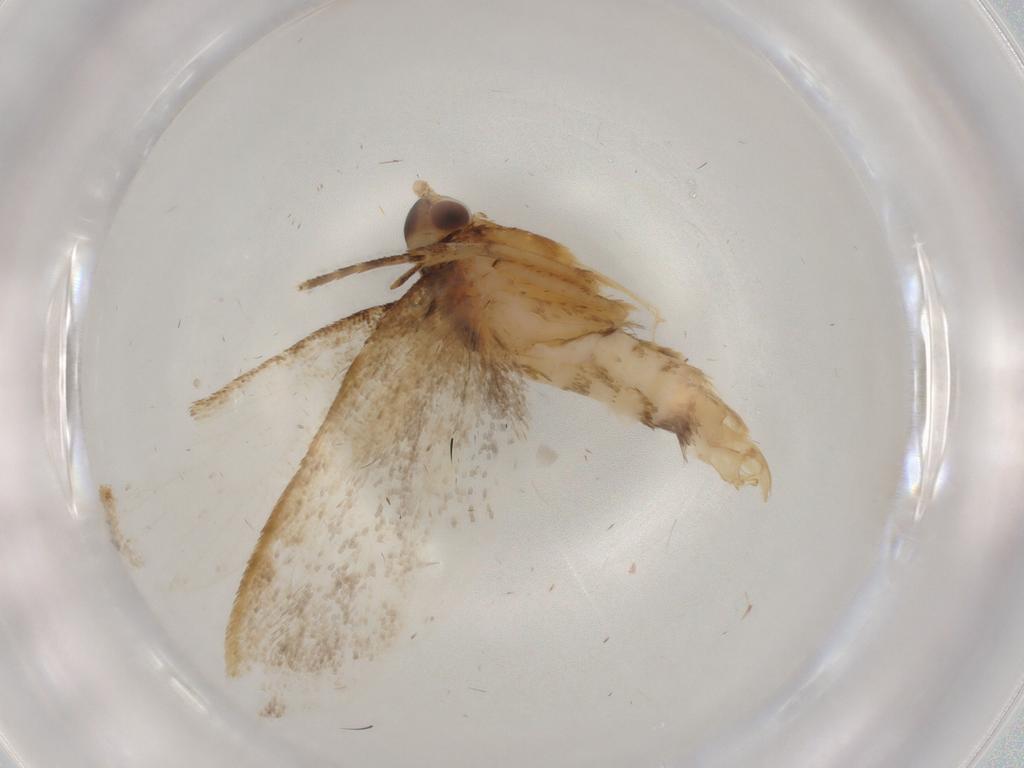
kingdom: Animalia
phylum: Arthropoda
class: Insecta
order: Lepidoptera
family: Lecithoceridae
